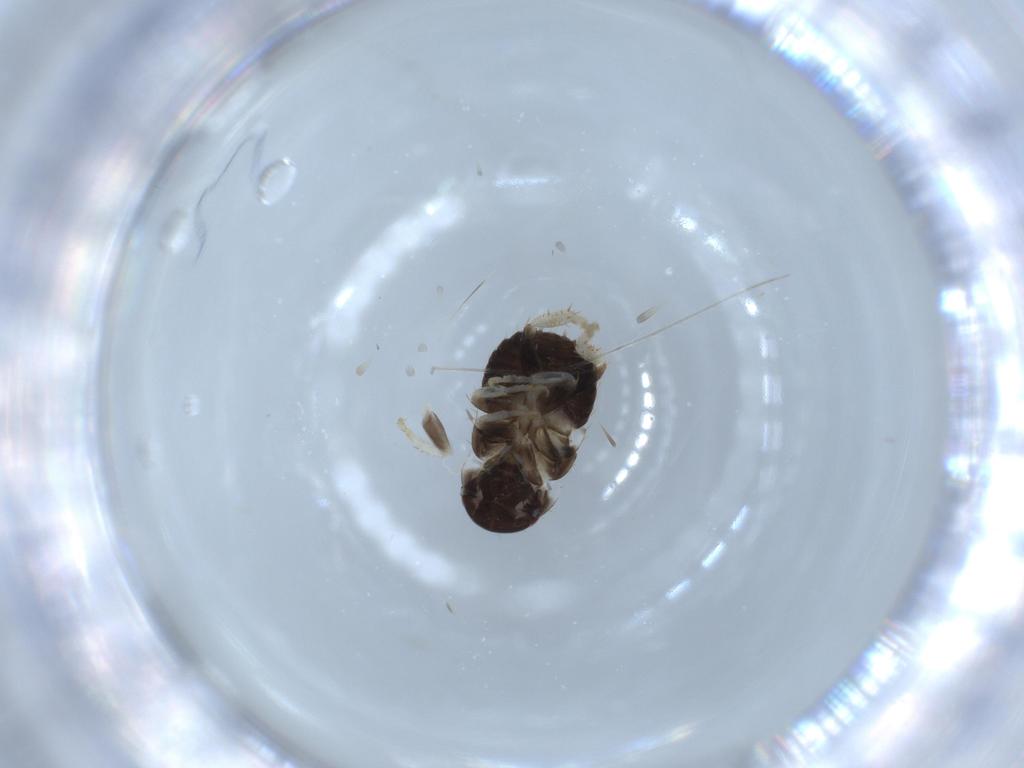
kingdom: Animalia
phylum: Arthropoda
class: Insecta
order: Blattodea
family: Ectobiidae
